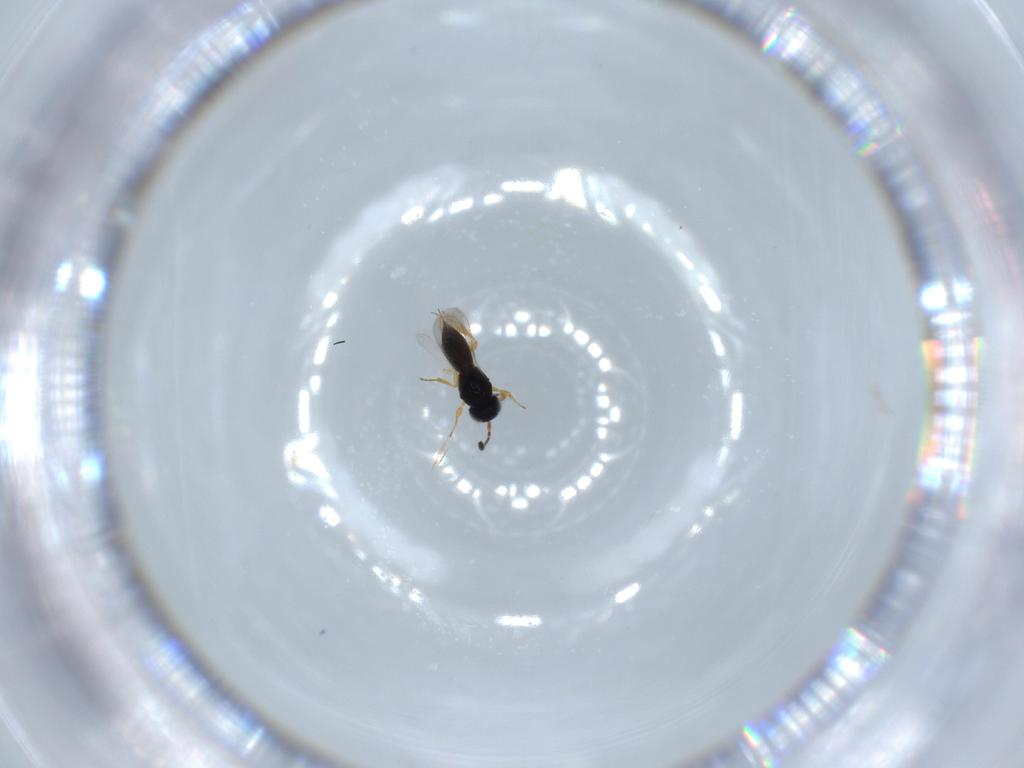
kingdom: Animalia
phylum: Arthropoda
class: Insecta
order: Hymenoptera
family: Scelionidae
